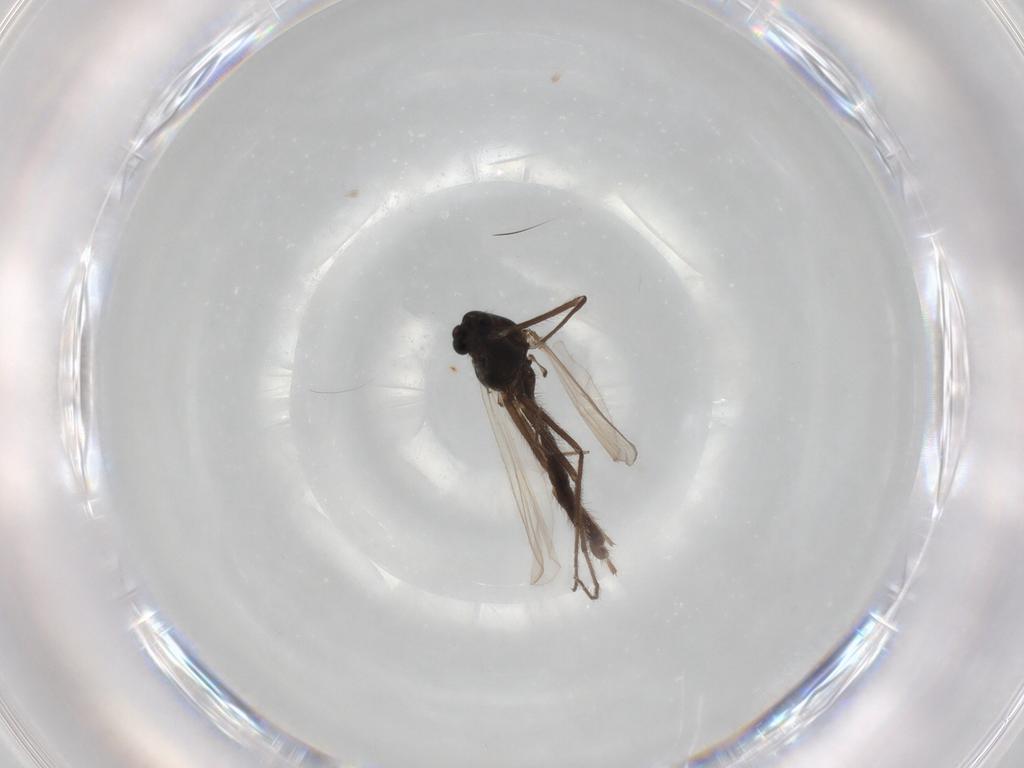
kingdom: Animalia
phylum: Arthropoda
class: Insecta
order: Diptera
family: Chironomidae
